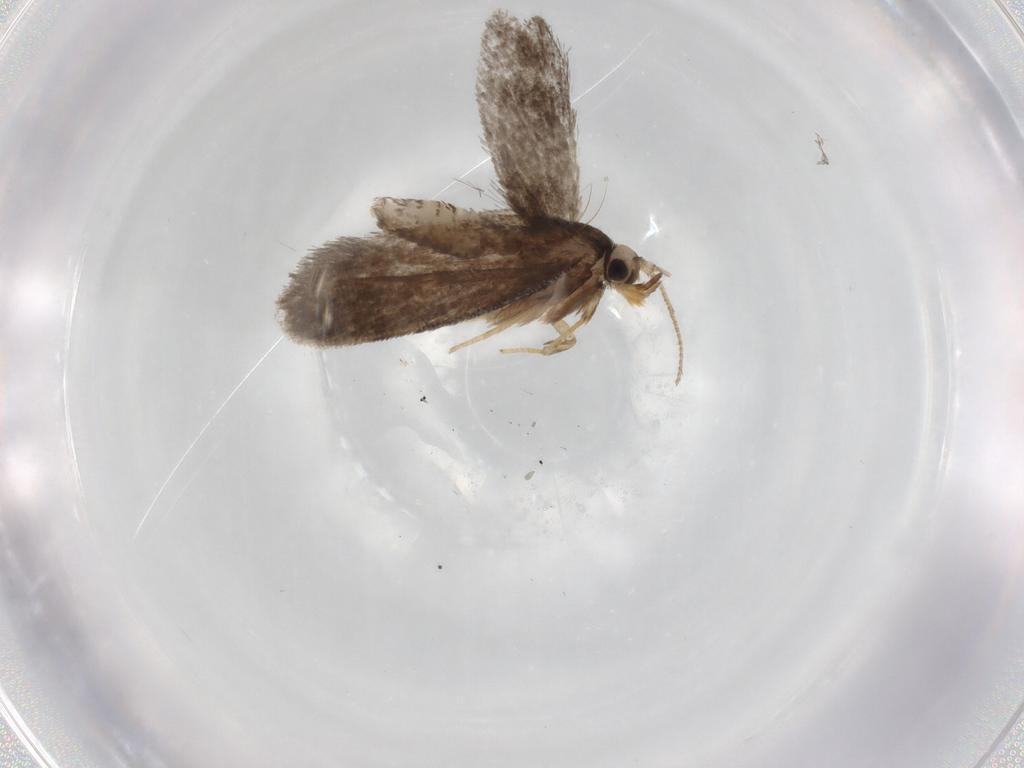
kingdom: Animalia
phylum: Arthropoda
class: Insecta
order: Lepidoptera
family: Psychidae
